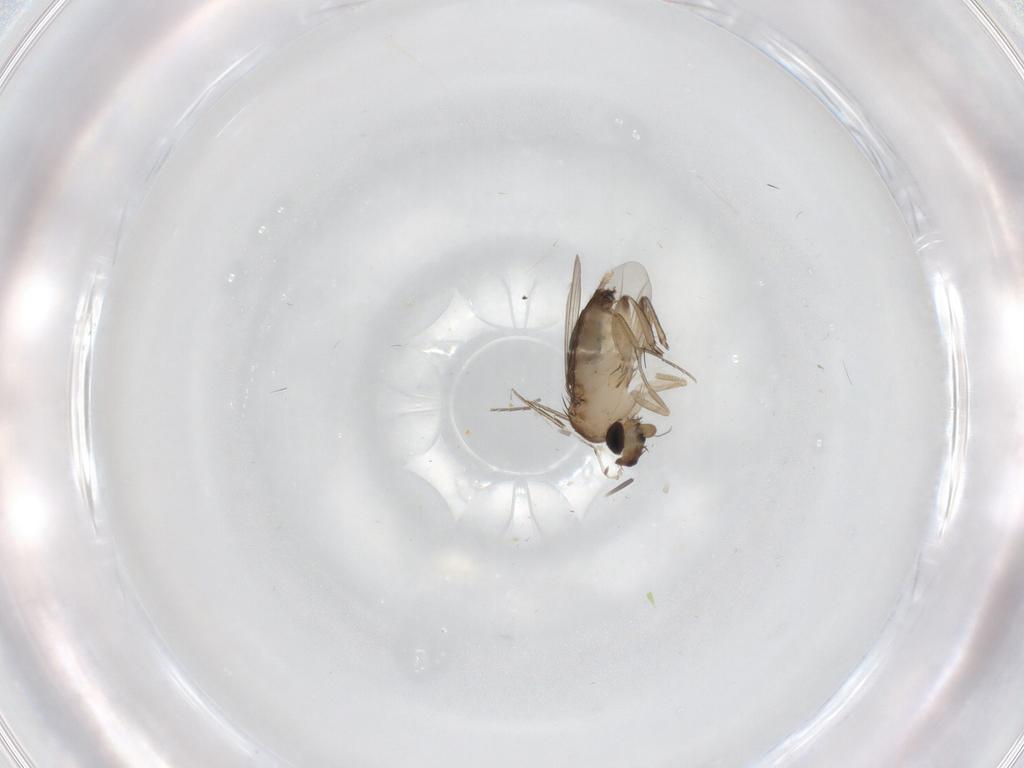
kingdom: Animalia
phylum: Arthropoda
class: Insecta
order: Diptera
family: Phoridae
